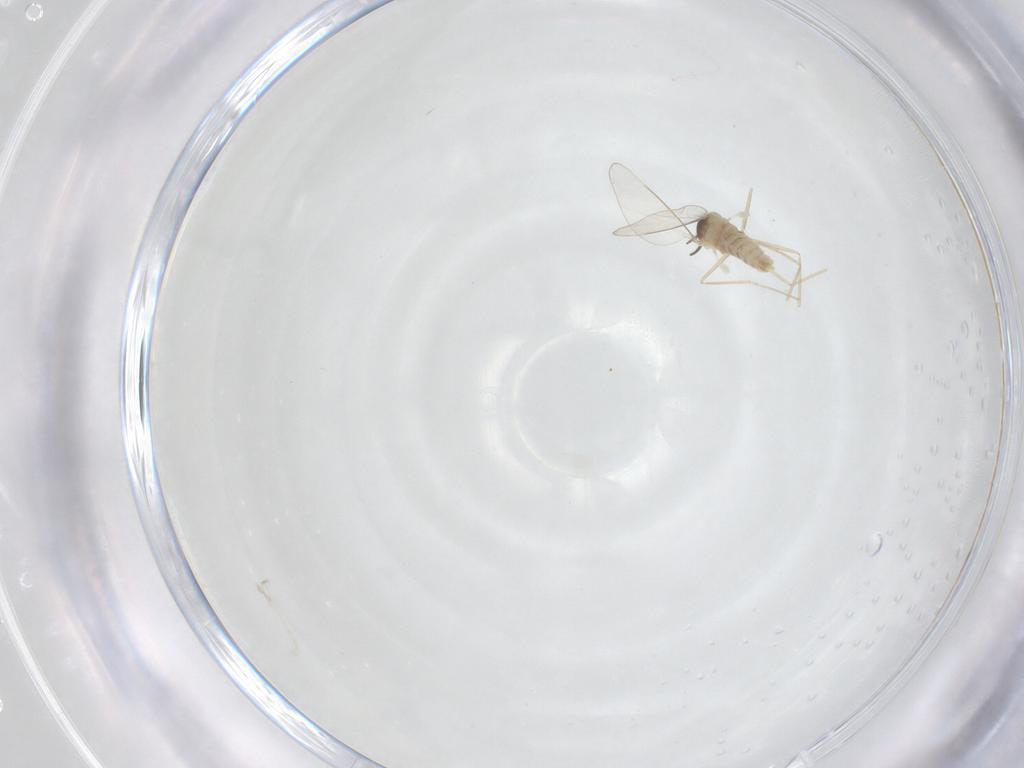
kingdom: Animalia
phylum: Arthropoda
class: Insecta
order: Diptera
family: Cecidomyiidae
